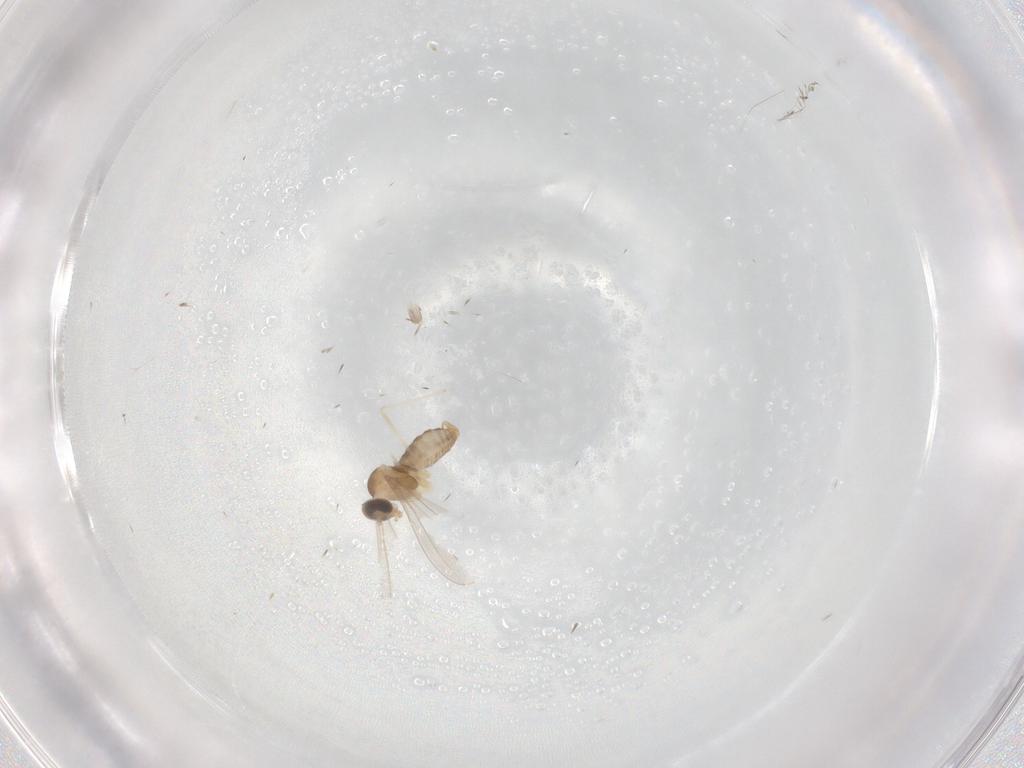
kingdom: Animalia
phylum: Arthropoda
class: Insecta
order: Diptera
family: Cecidomyiidae
